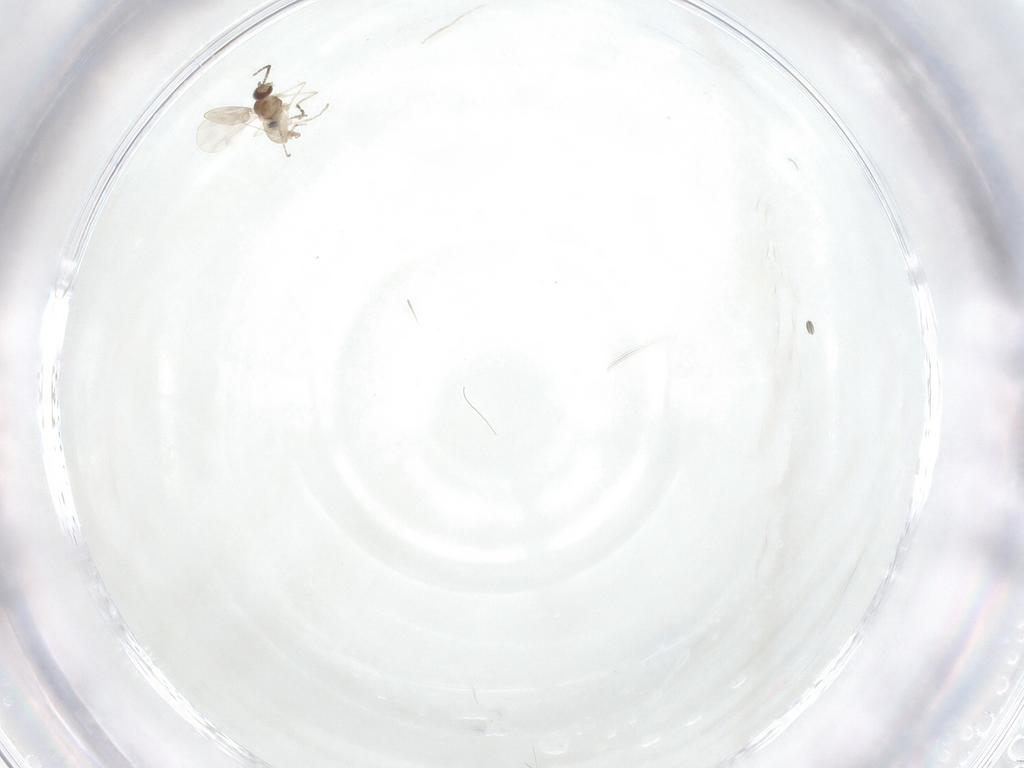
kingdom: Animalia
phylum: Arthropoda
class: Insecta
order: Diptera
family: Cecidomyiidae
